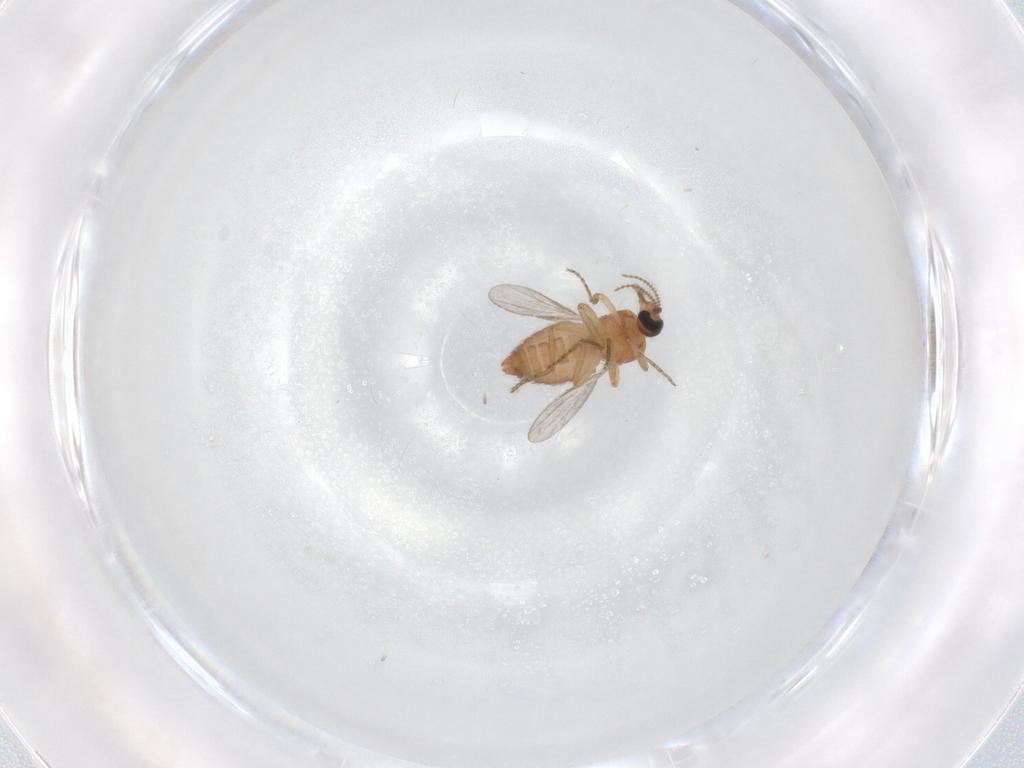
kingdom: Animalia
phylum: Arthropoda
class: Insecta
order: Diptera
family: Ceratopogonidae
